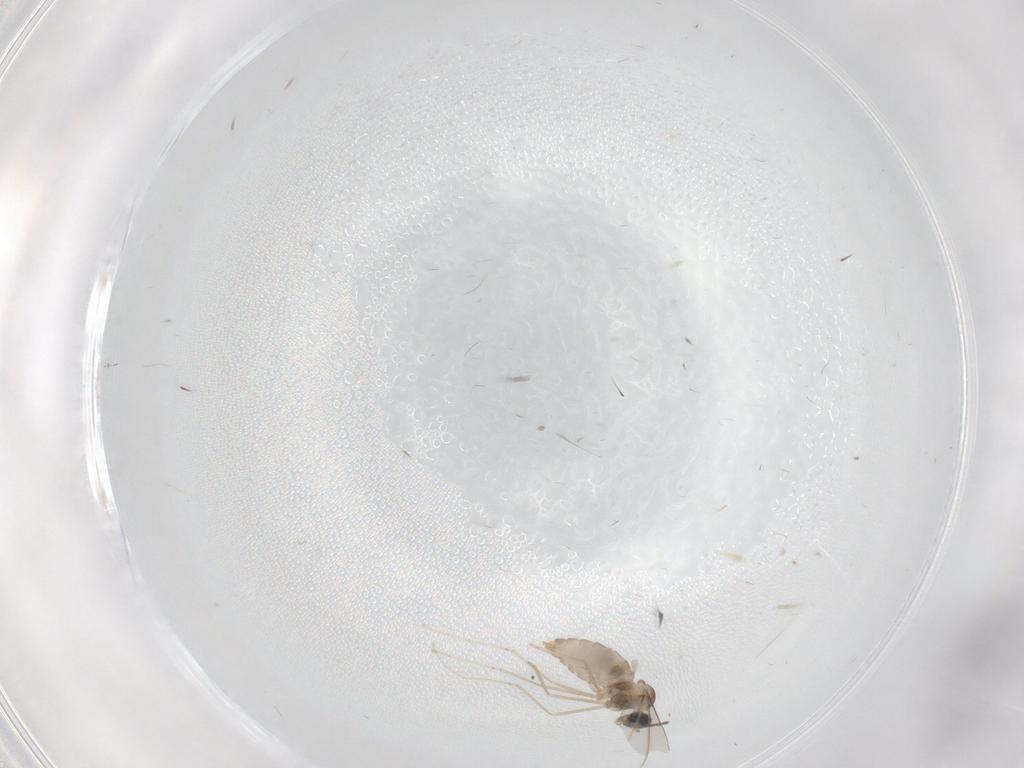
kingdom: Animalia
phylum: Arthropoda
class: Insecta
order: Diptera
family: Cecidomyiidae
